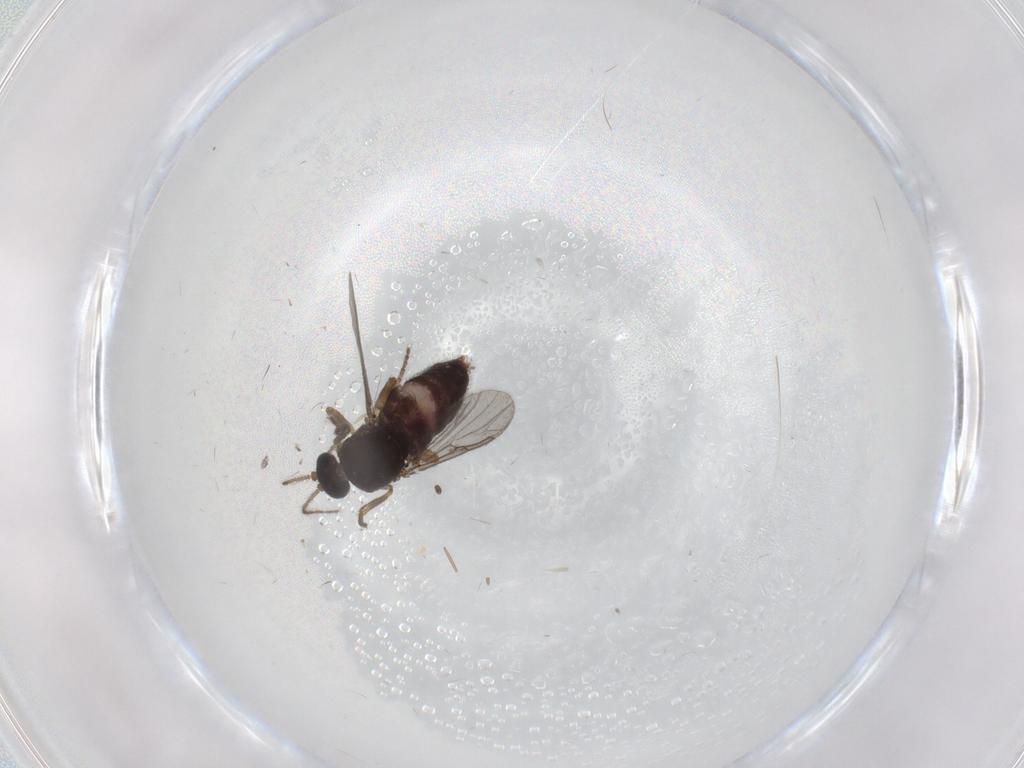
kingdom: Animalia
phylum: Arthropoda
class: Insecta
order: Diptera
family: Ceratopogonidae
